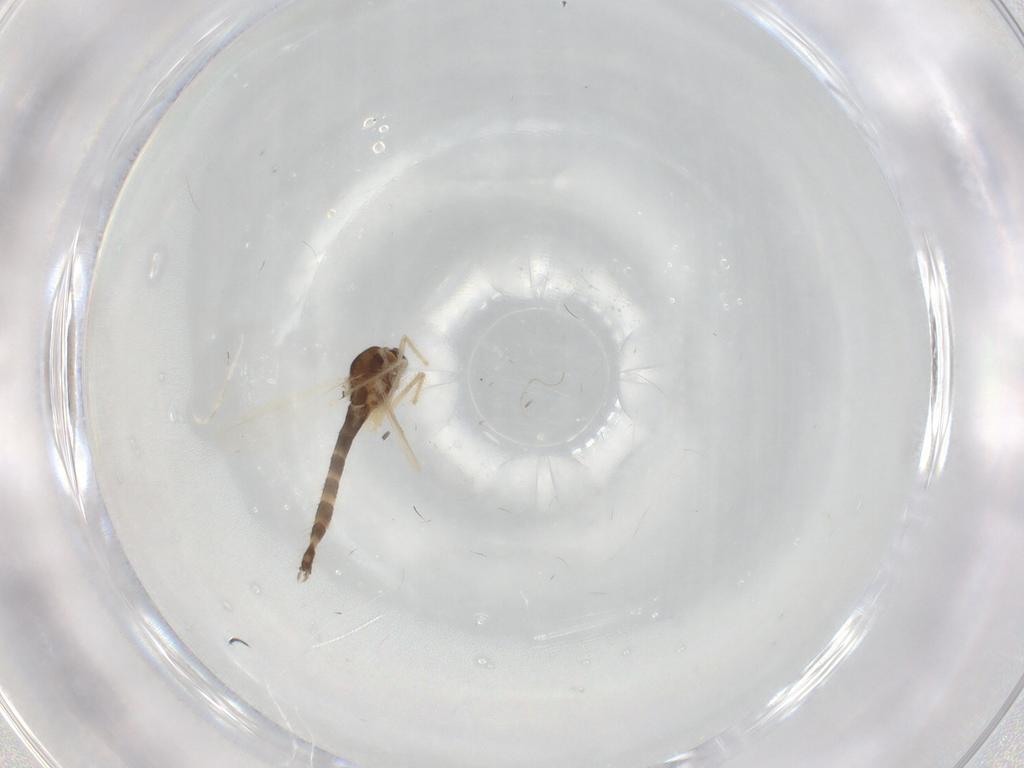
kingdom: Animalia
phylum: Arthropoda
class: Insecta
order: Diptera
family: Chironomidae
